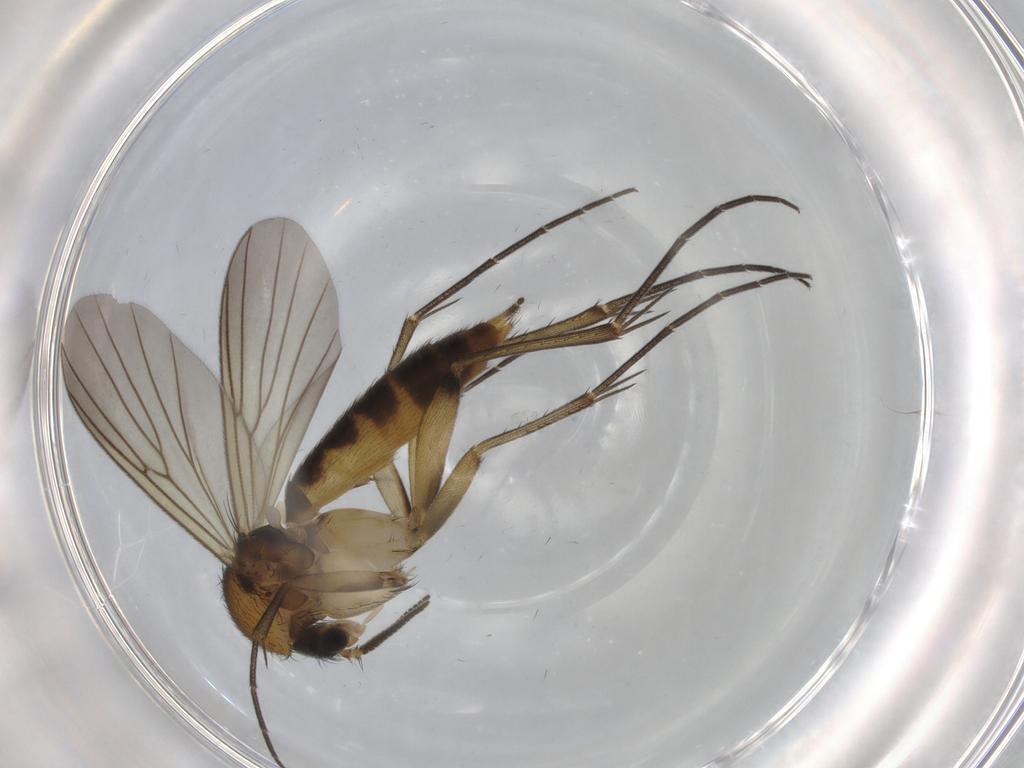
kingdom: Animalia
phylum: Arthropoda
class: Insecta
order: Diptera
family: Mycetophilidae
